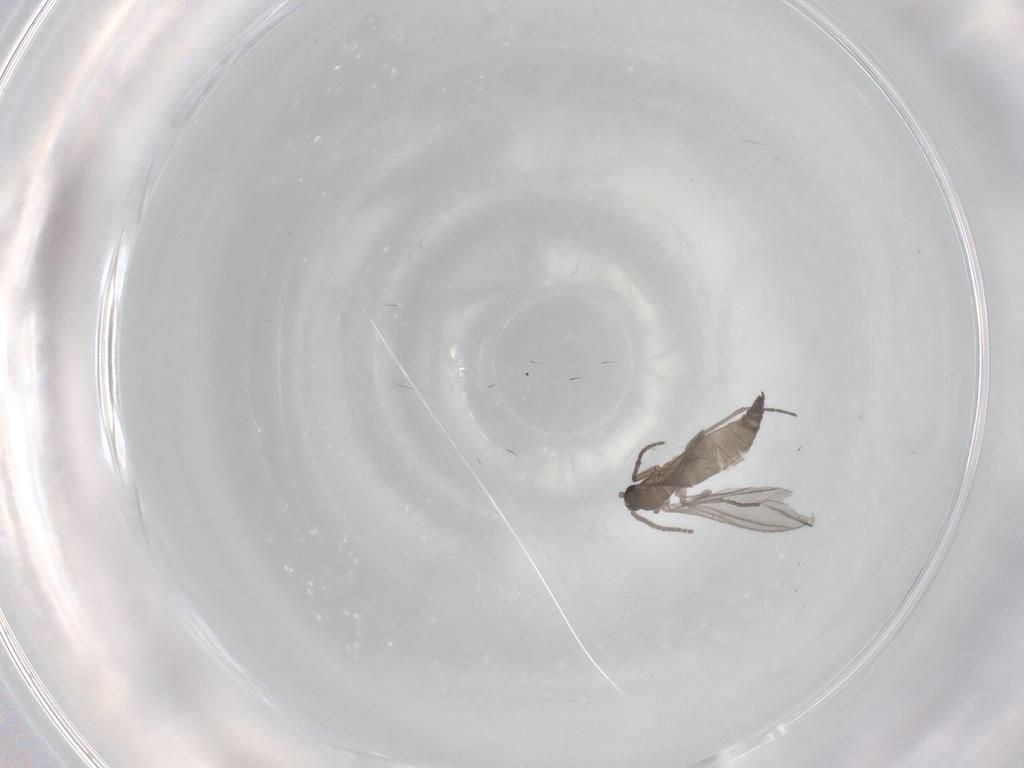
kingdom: Animalia
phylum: Arthropoda
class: Insecta
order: Diptera
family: Sciaridae
